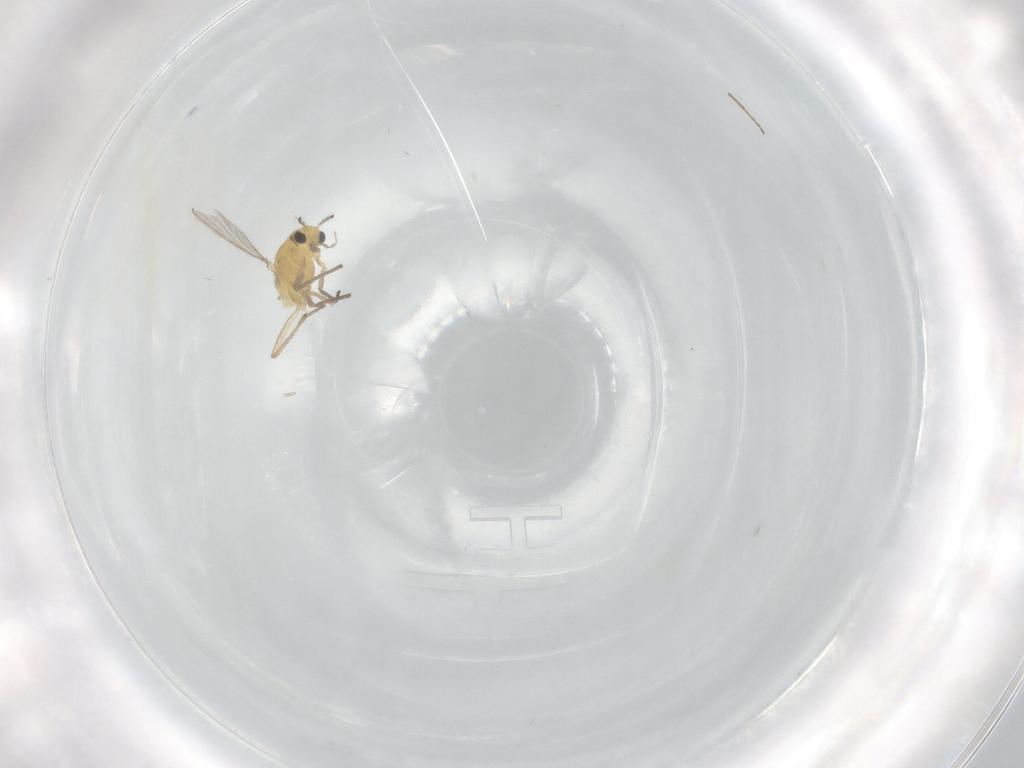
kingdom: Animalia
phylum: Arthropoda
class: Insecta
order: Diptera
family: Chironomidae
